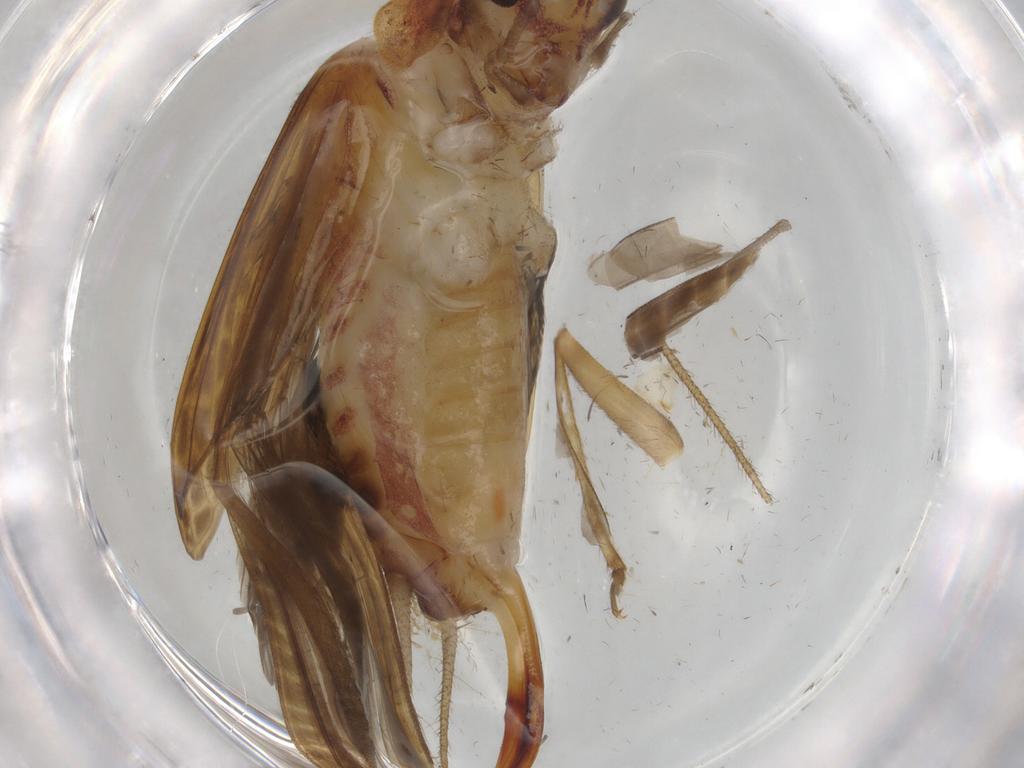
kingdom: Animalia
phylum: Arthropoda
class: Insecta
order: Orthoptera
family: Trigonidiidae
